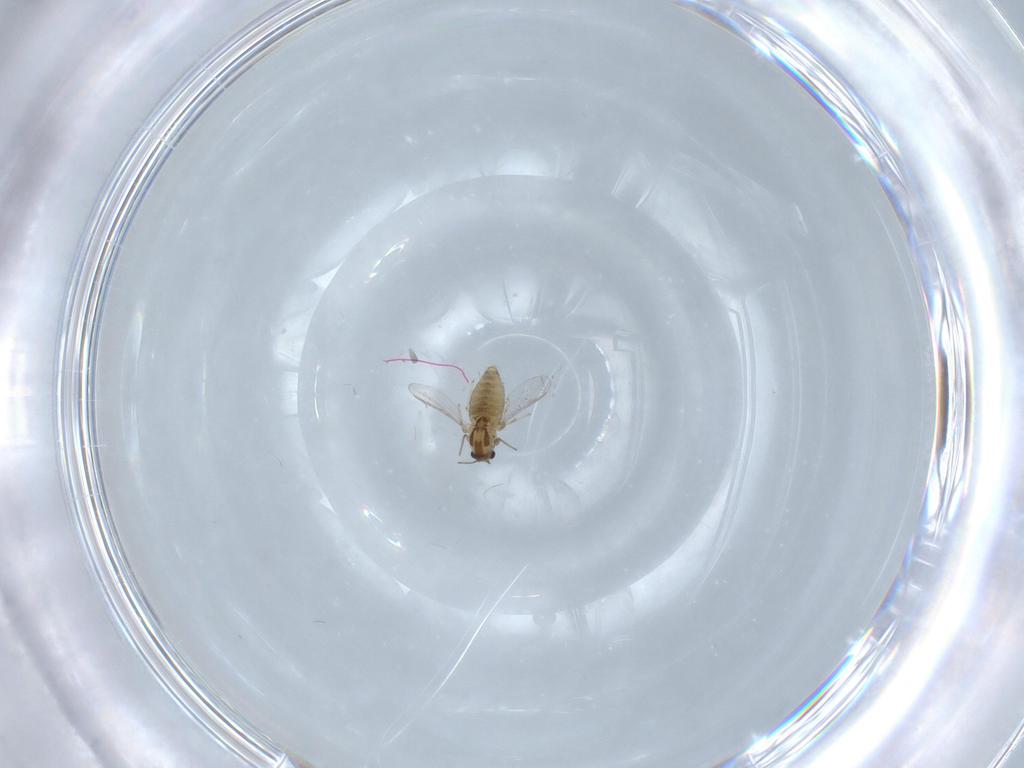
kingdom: Animalia
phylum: Arthropoda
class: Insecta
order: Diptera
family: Chironomidae
